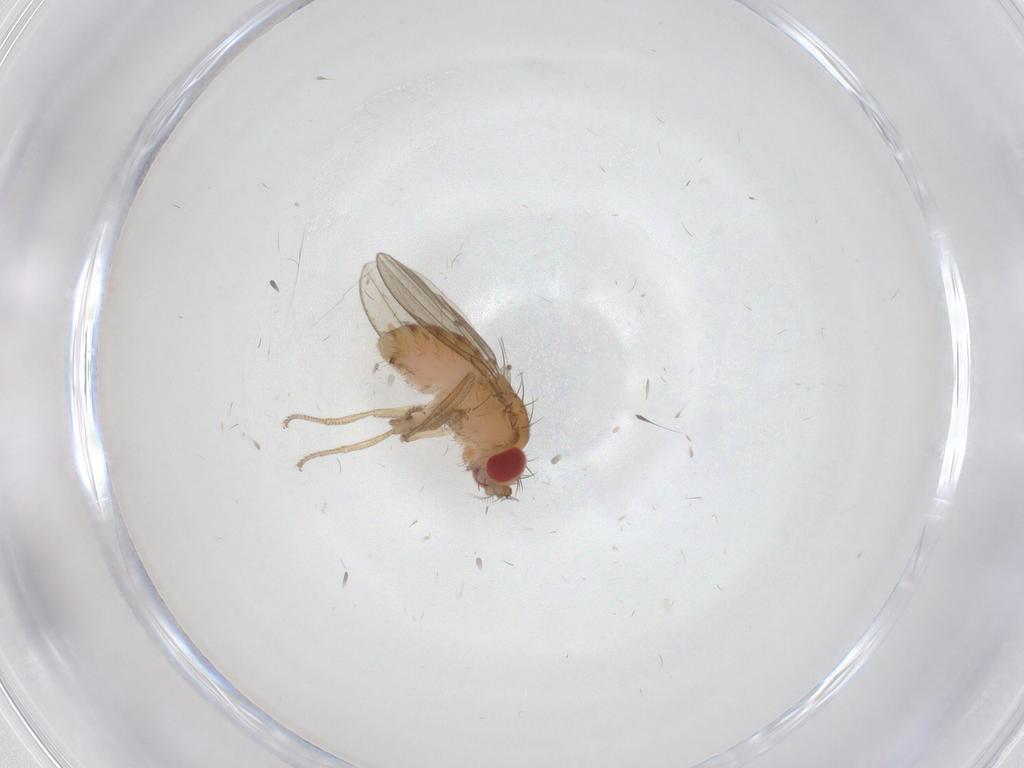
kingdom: Animalia
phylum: Arthropoda
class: Insecta
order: Diptera
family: Drosophilidae
